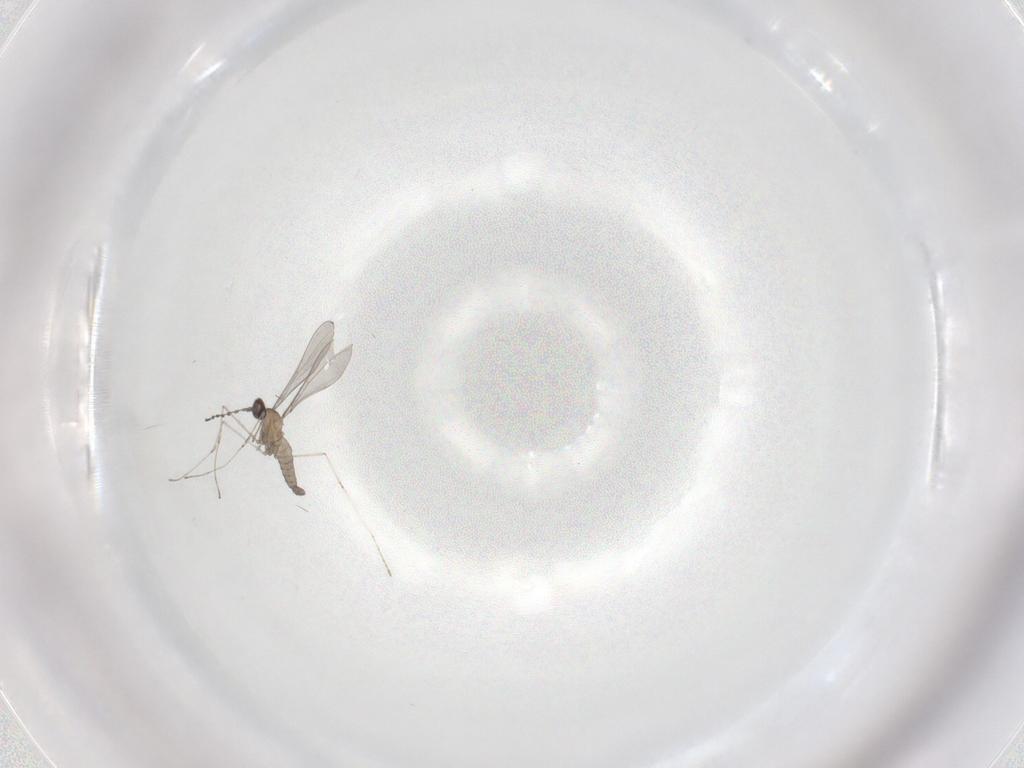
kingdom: Animalia
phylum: Arthropoda
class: Insecta
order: Diptera
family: Cecidomyiidae
